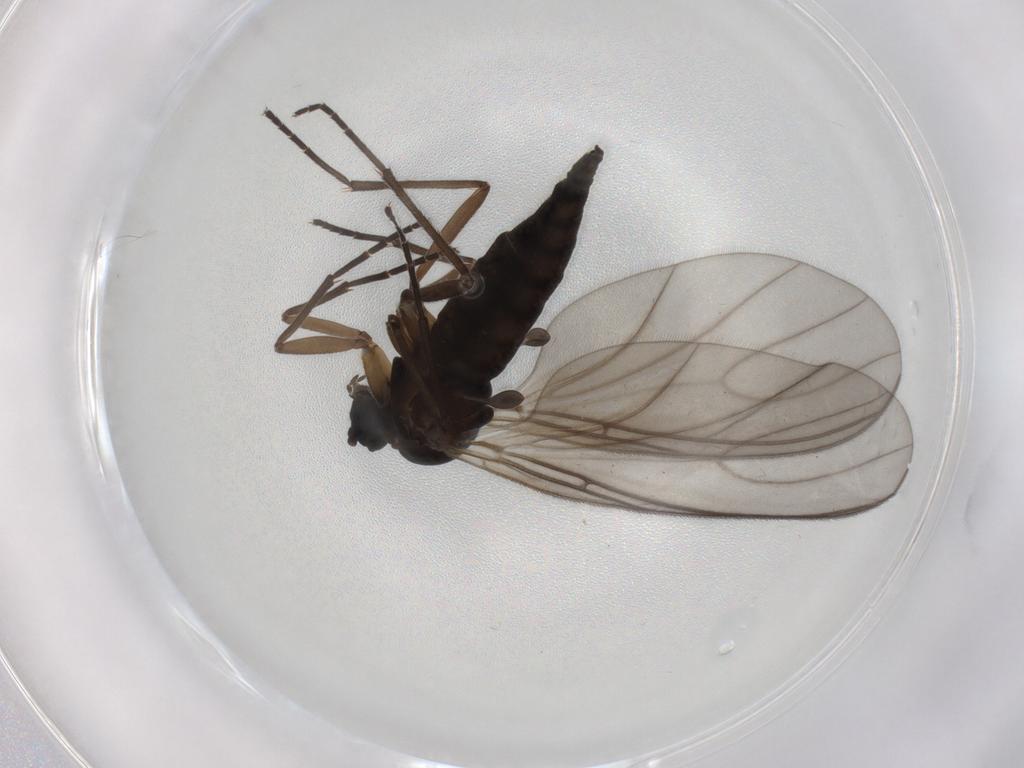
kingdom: Animalia
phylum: Arthropoda
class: Insecta
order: Diptera
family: Sciaridae
